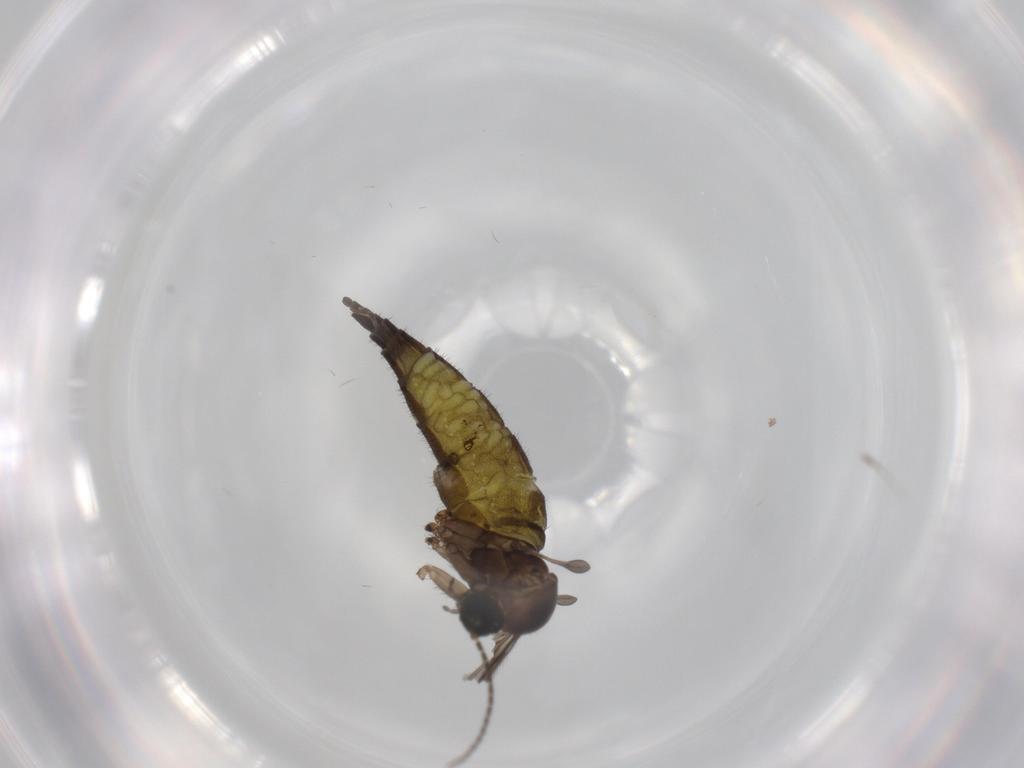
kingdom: Animalia
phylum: Arthropoda
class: Insecta
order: Diptera
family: Sciaridae
